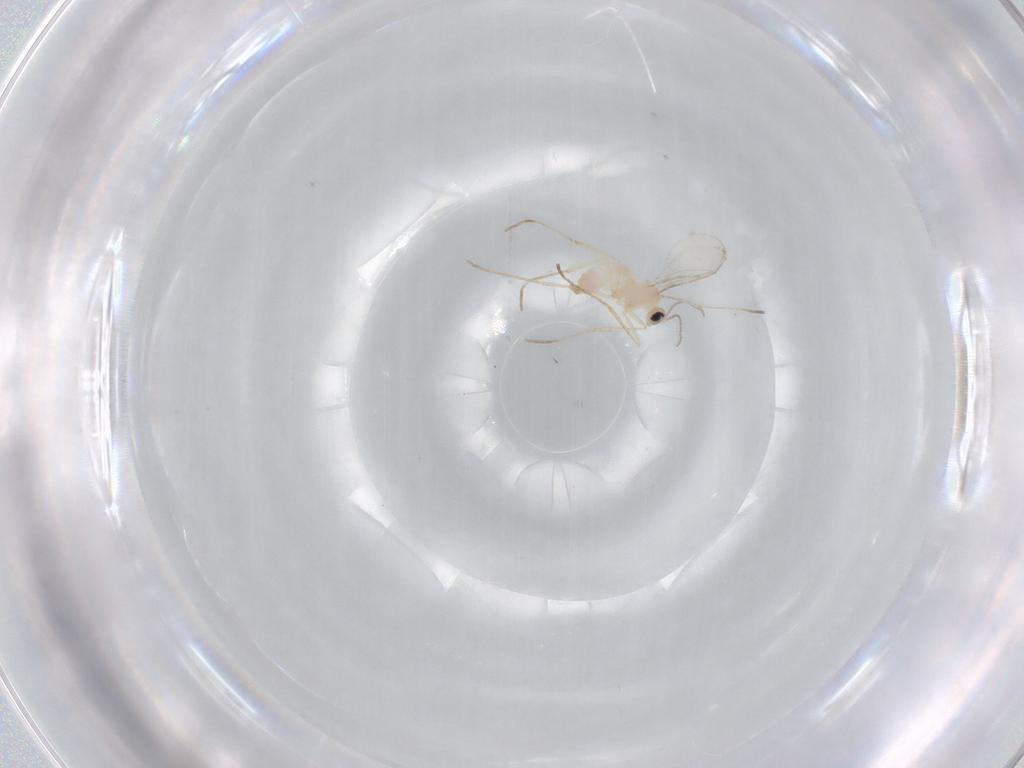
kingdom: Animalia
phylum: Arthropoda
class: Insecta
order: Diptera
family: Cecidomyiidae
